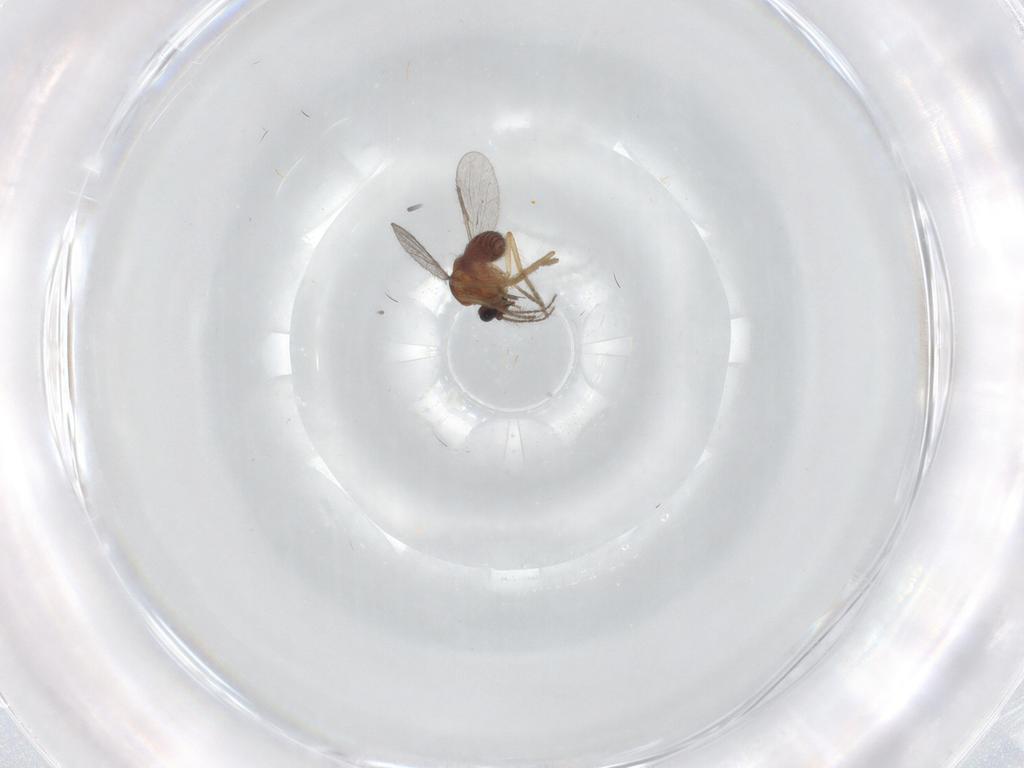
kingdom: Animalia
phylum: Arthropoda
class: Insecta
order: Diptera
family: Ceratopogonidae
